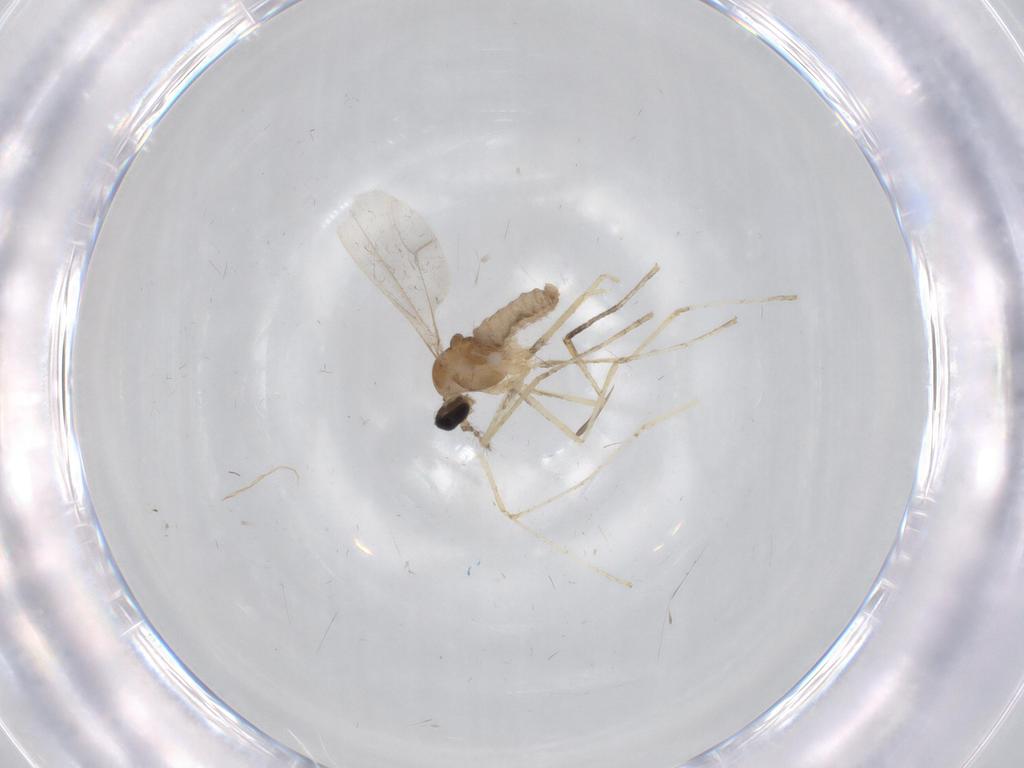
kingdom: Animalia
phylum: Arthropoda
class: Insecta
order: Diptera
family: Cecidomyiidae
